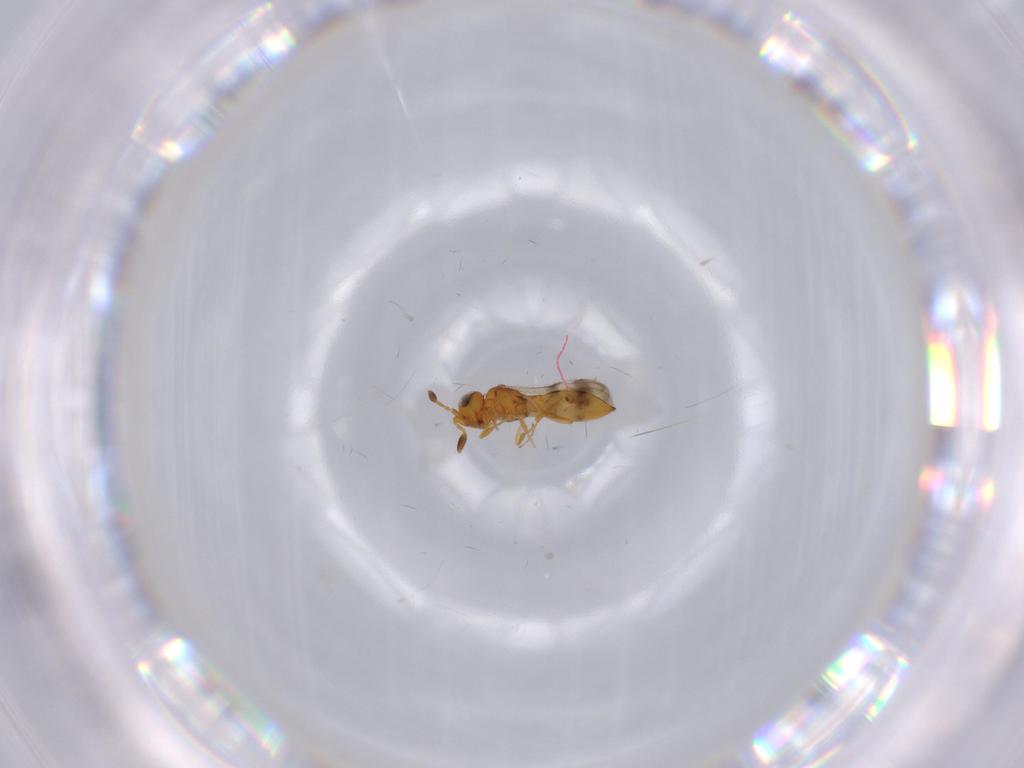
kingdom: Animalia
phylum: Arthropoda
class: Insecta
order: Hymenoptera
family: Scelionidae
